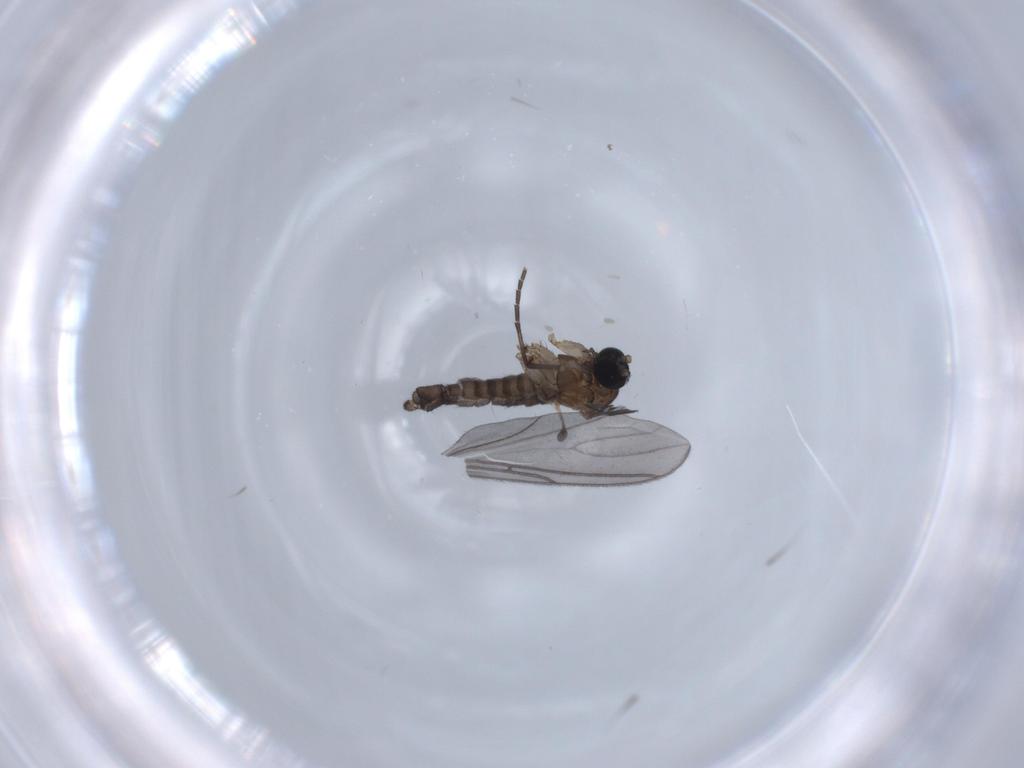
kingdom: Animalia
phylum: Arthropoda
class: Insecta
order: Diptera
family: Sciaridae
